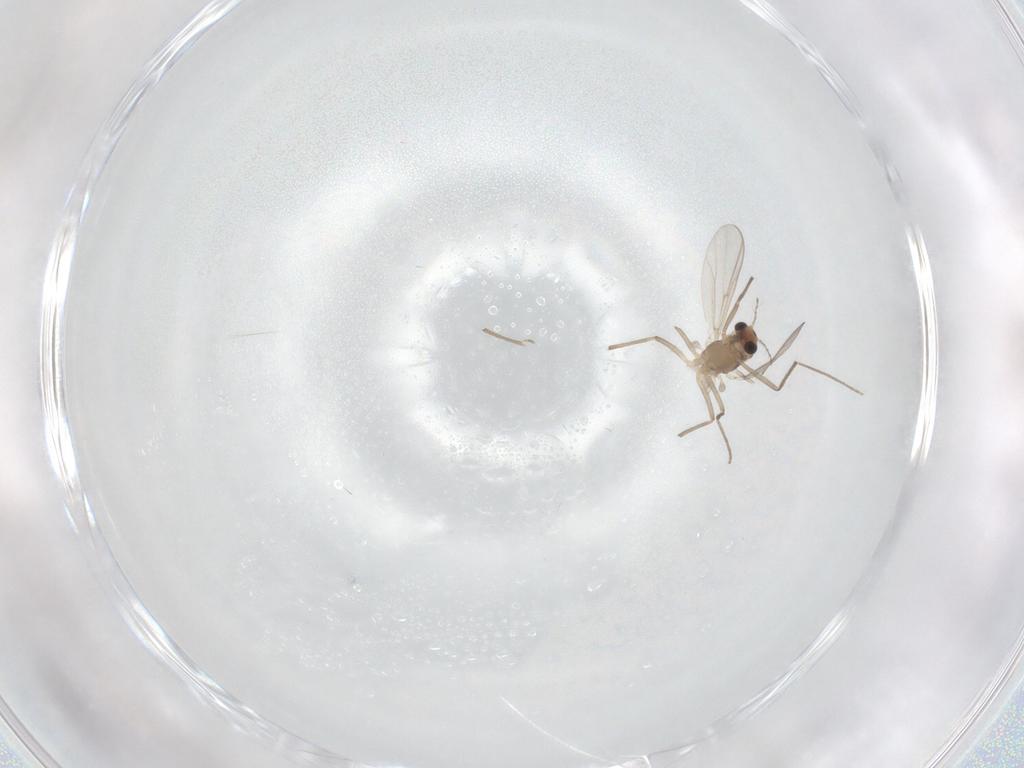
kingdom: Animalia
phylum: Arthropoda
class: Insecta
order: Diptera
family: Chironomidae
